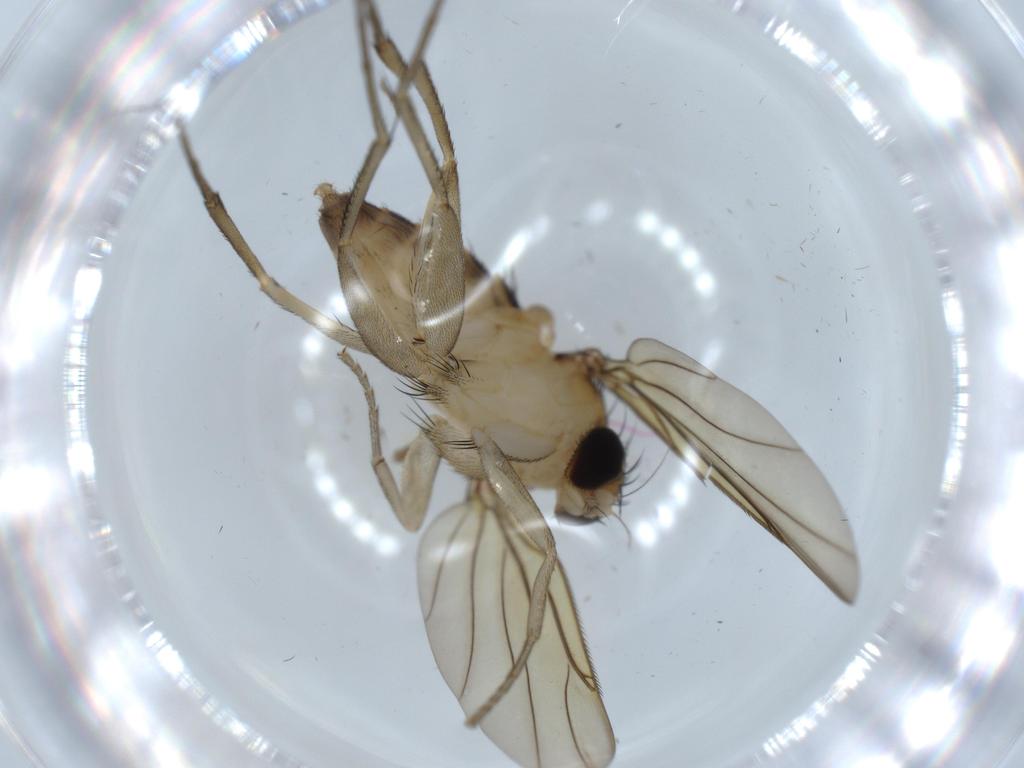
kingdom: Animalia
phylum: Arthropoda
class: Insecta
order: Diptera
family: Sciaridae
